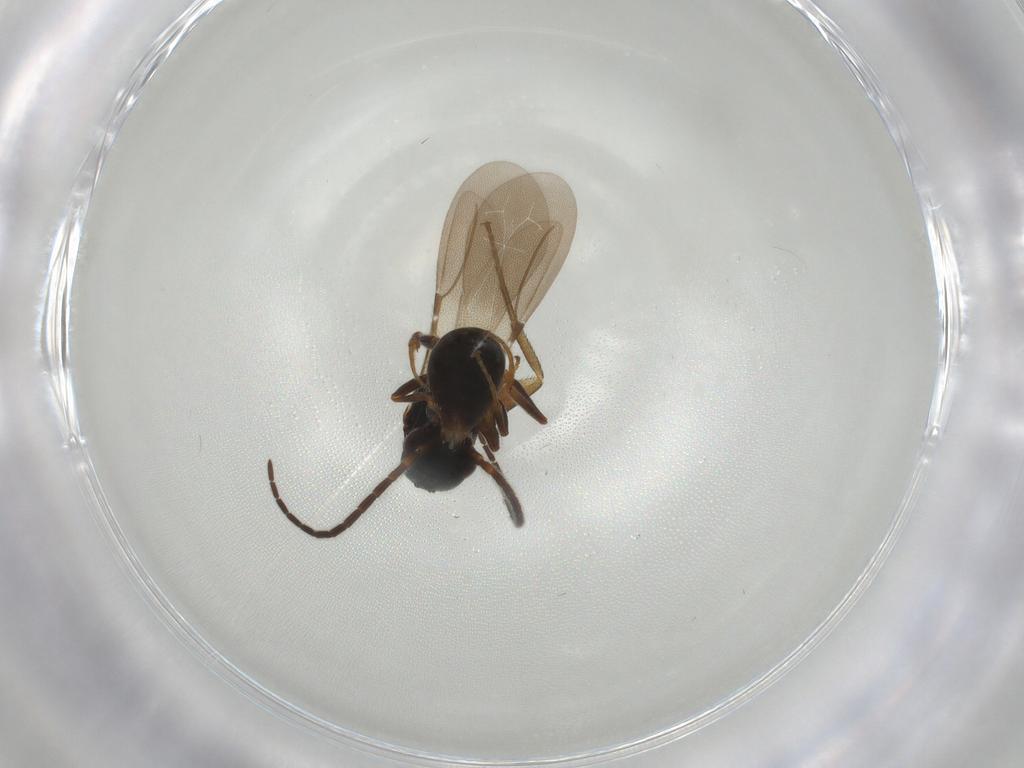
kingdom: Animalia
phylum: Arthropoda
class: Insecta
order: Hymenoptera
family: Bethylidae
